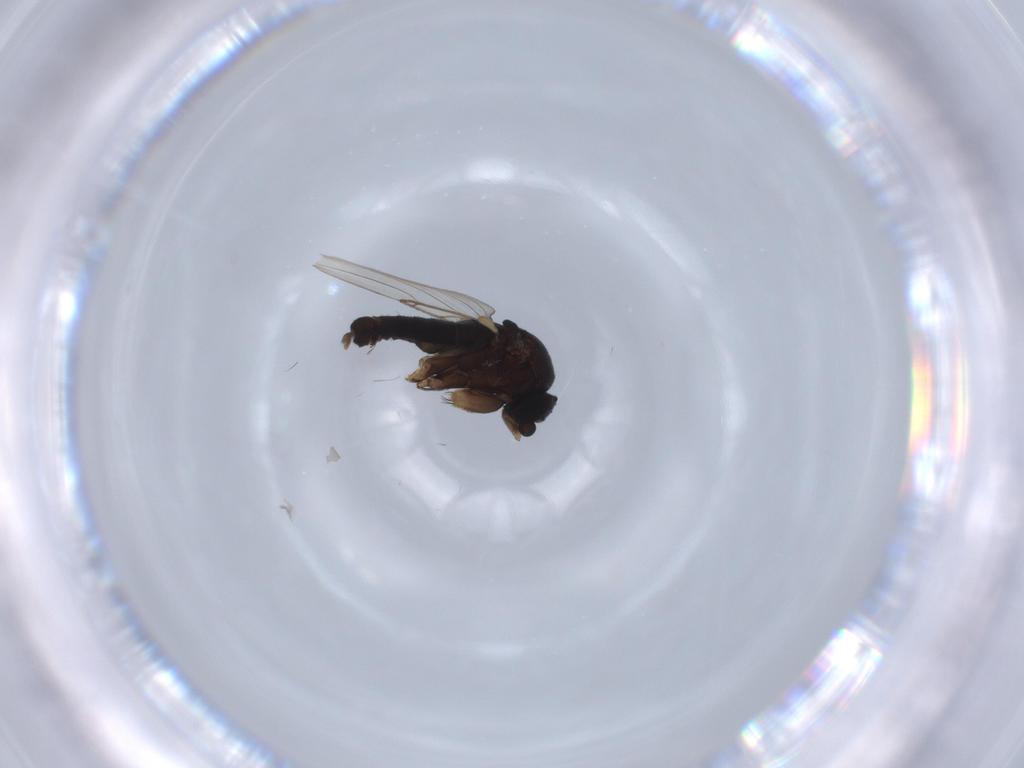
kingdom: Animalia
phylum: Arthropoda
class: Insecta
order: Diptera
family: Phoridae
